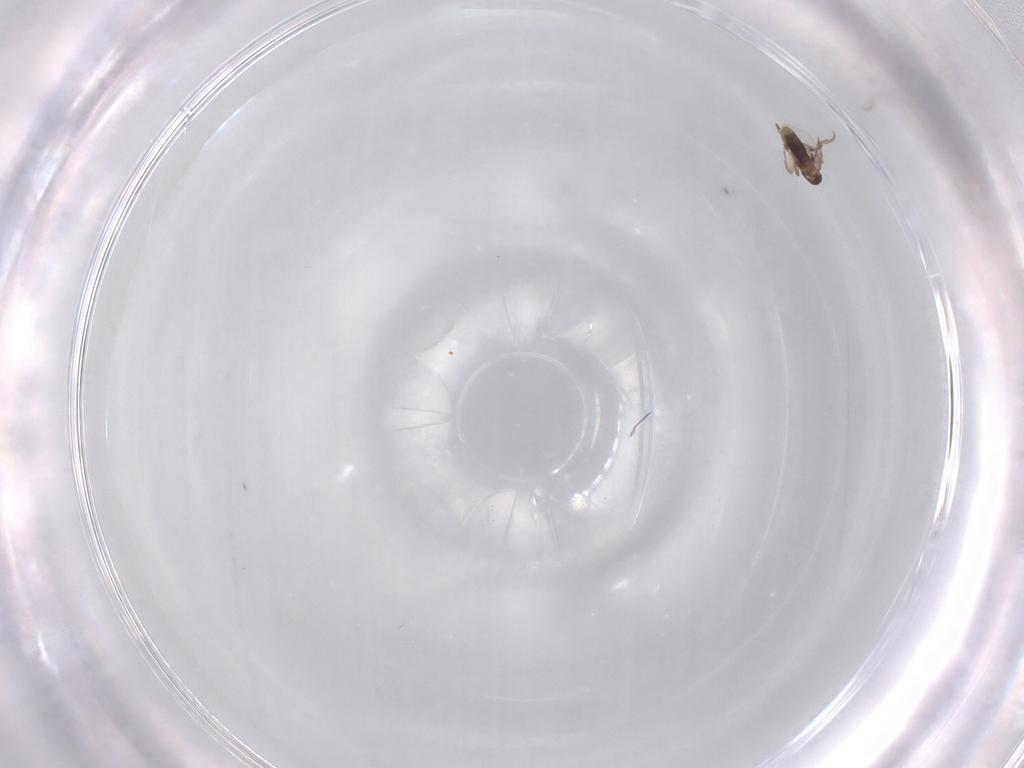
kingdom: Animalia
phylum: Arthropoda
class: Insecta
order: Diptera
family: Phoridae
